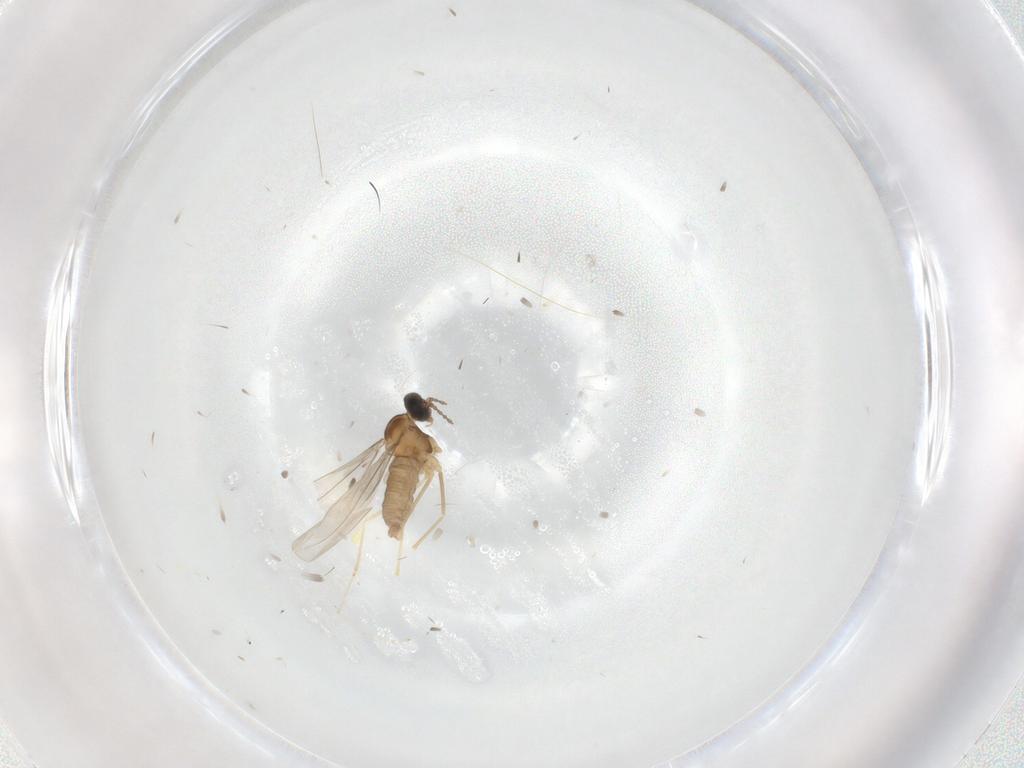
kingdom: Animalia
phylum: Arthropoda
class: Insecta
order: Diptera
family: Cecidomyiidae
